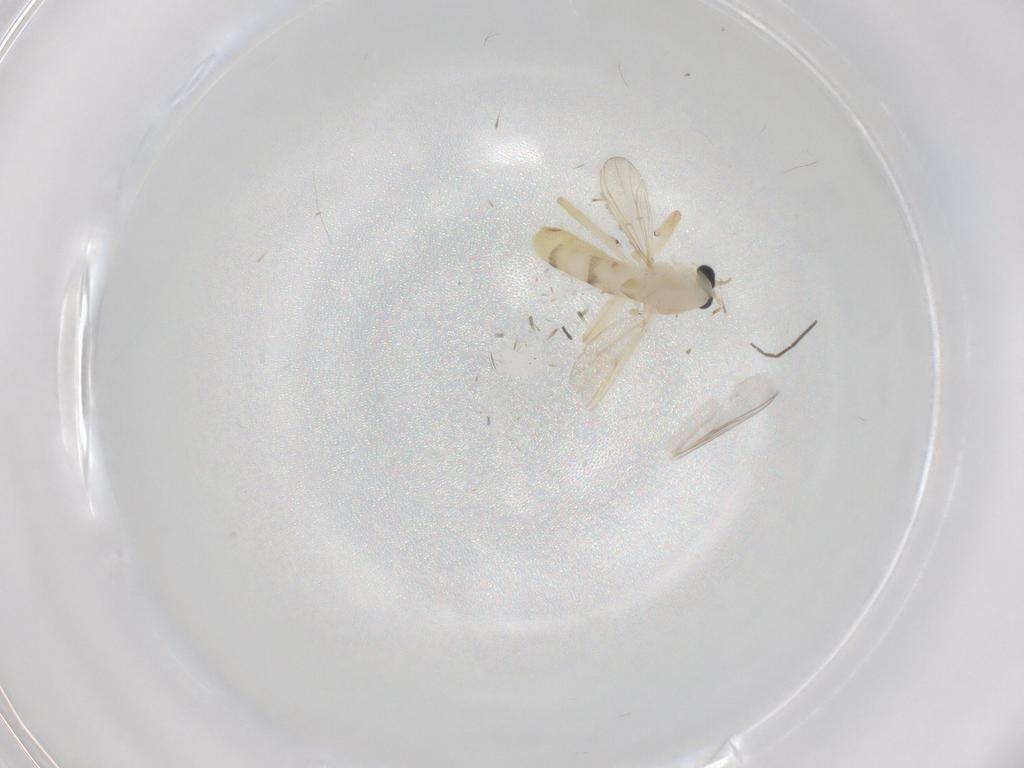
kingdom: Animalia
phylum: Arthropoda
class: Insecta
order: Diptera
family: Chironomidae
